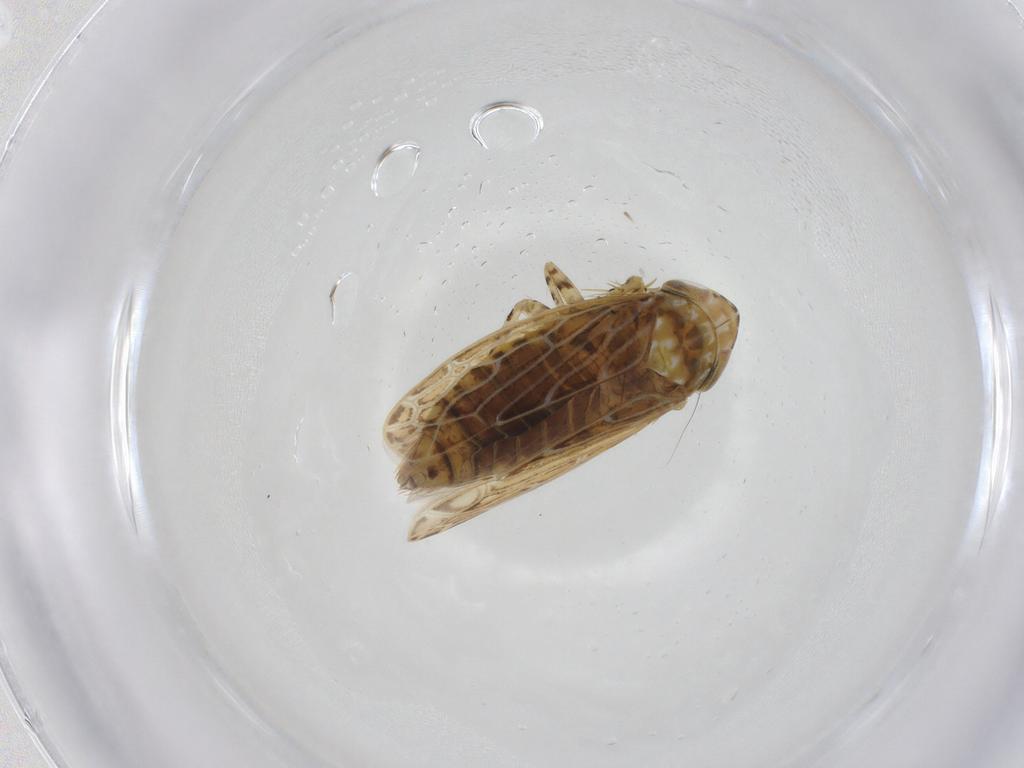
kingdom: Animalia
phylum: Arthropoda
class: Insecta
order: Hemiptera
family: Cicadellidae
